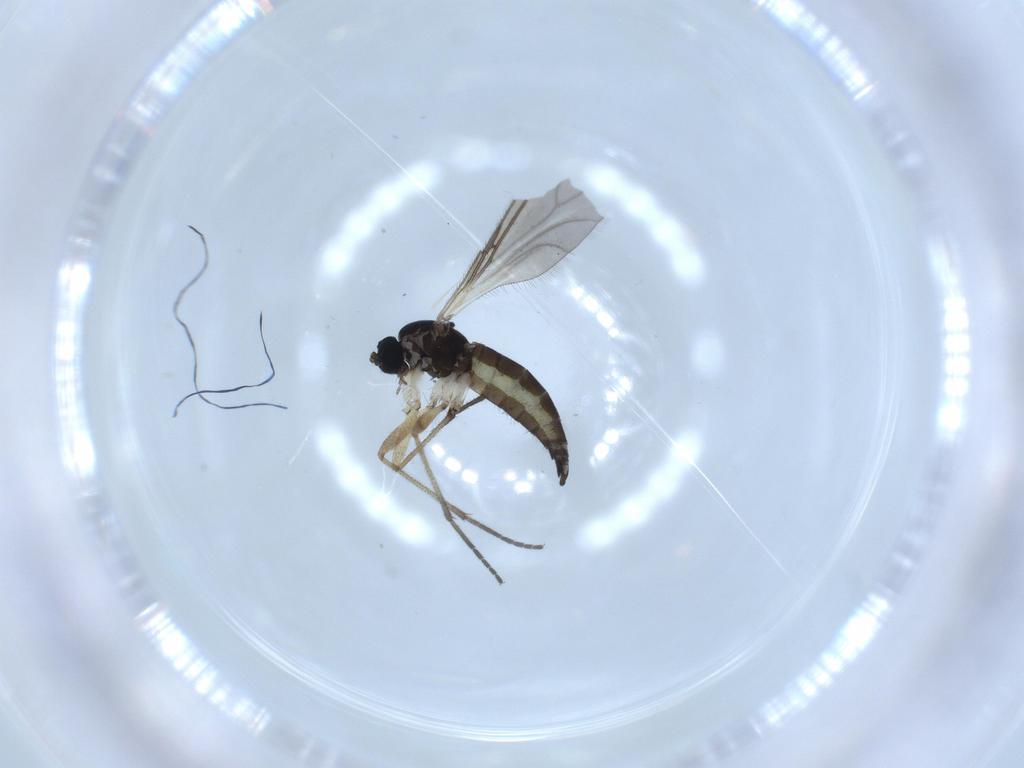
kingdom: Animalia
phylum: Arthropoda
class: Insecta
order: Diptera
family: Sciaridae
